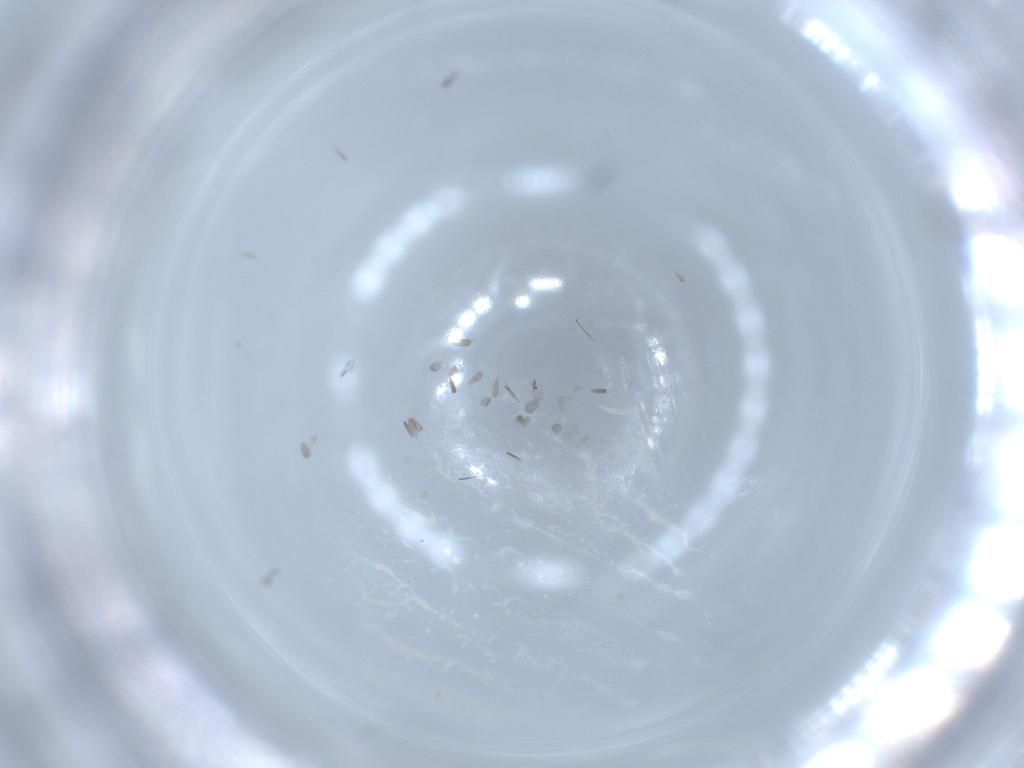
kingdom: Animalia
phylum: Arthropoda
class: Insecta
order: Diptera
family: Cecidomyiidae
